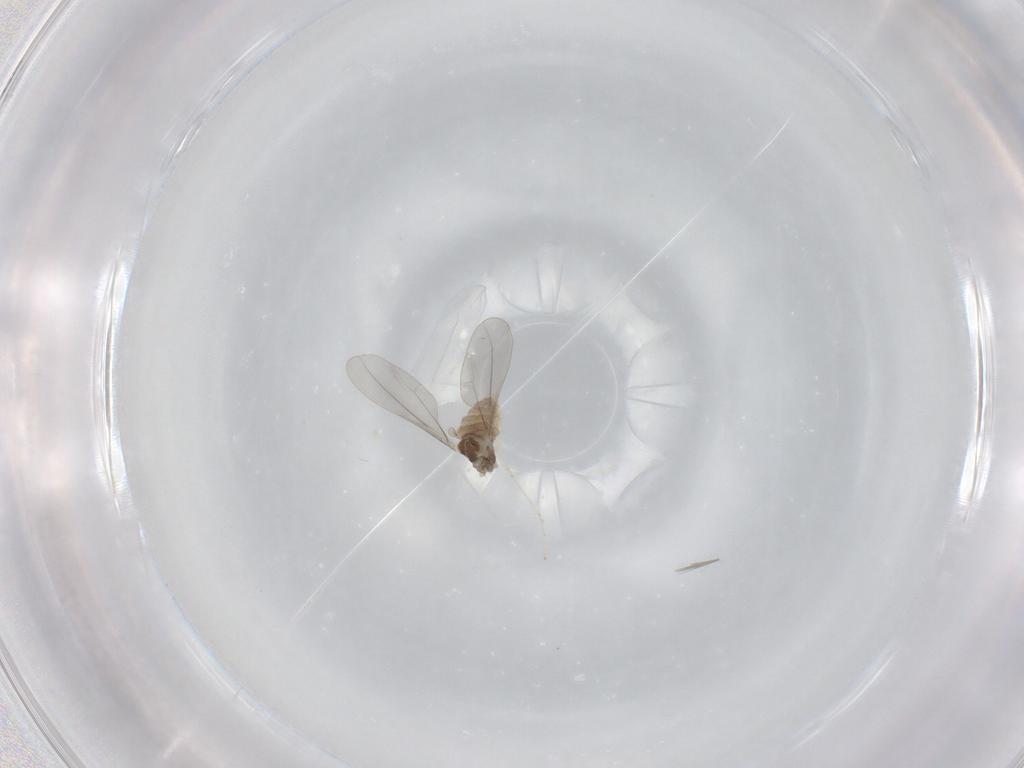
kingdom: Animalia
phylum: Arthropoda
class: Insecta
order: Diptera
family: Cecidomyiidae
